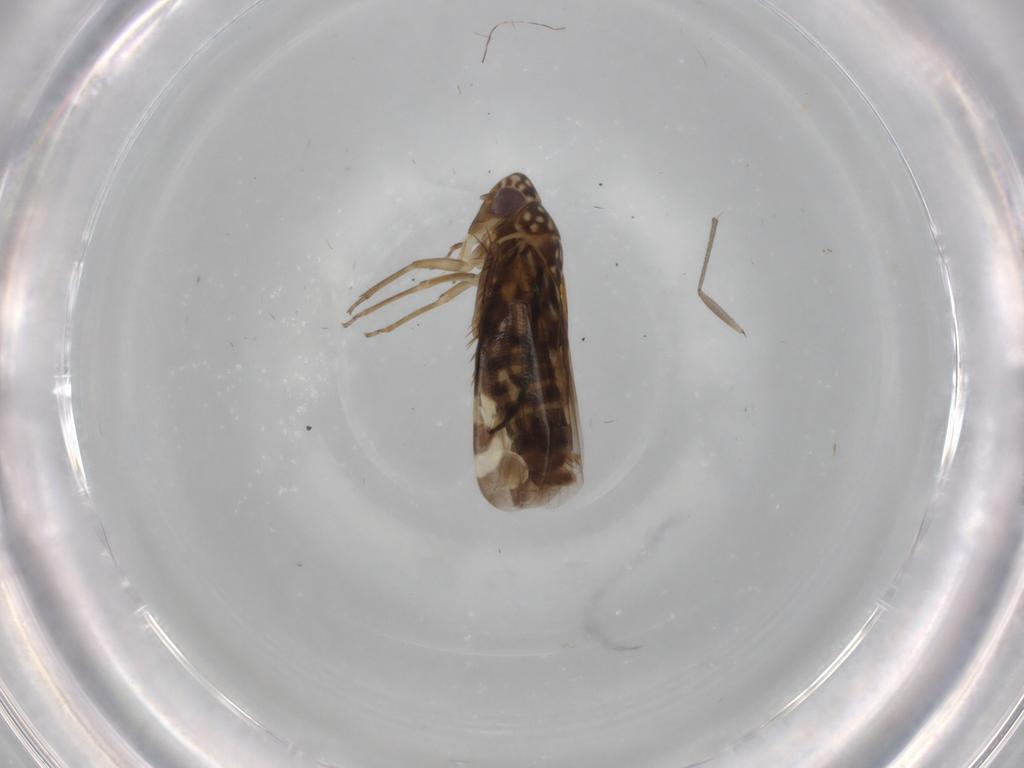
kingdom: Animalia
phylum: Arthropoda
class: Insecta
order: Hemiptera
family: Cicadellidae
